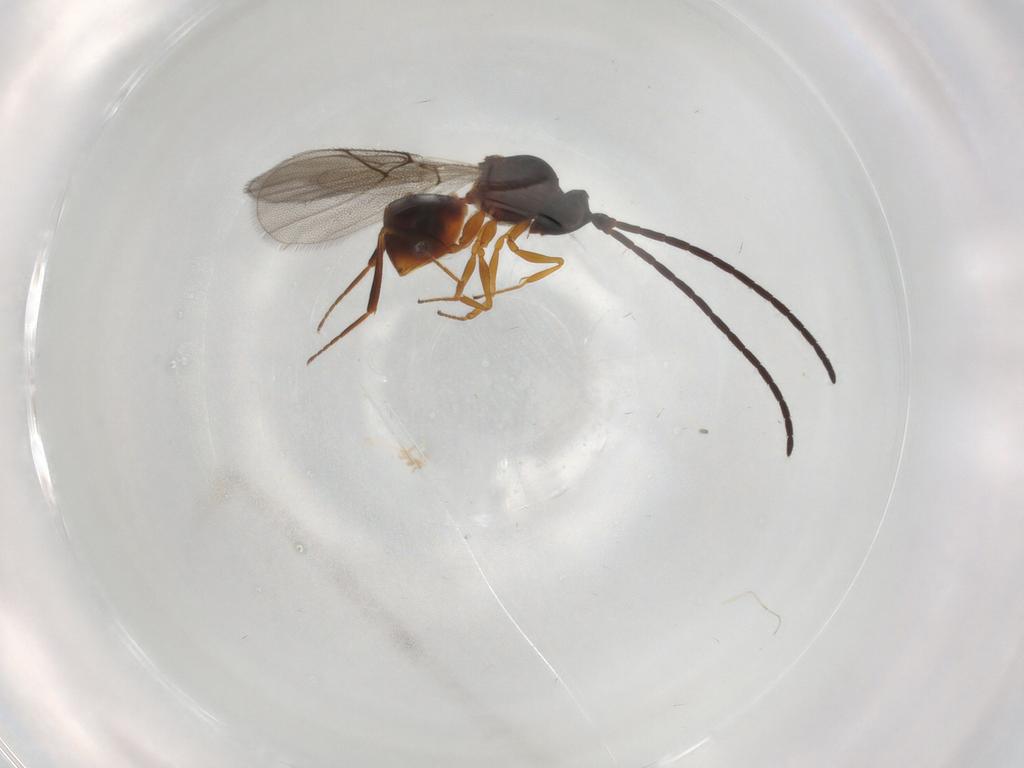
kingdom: Animalia
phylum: Arthropoda
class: Insecta
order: Hymenoptera
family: Figitidae
